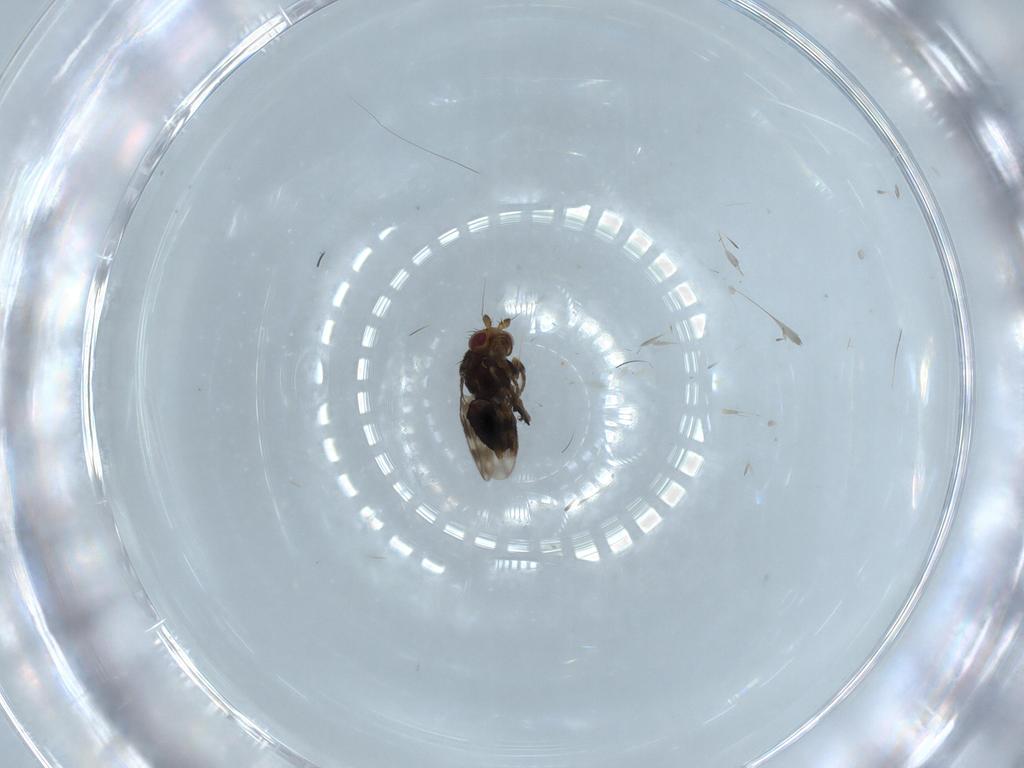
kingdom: Animalia
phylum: Arthropoda
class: Insecta
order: Diptera
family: Sphaeroceridae
